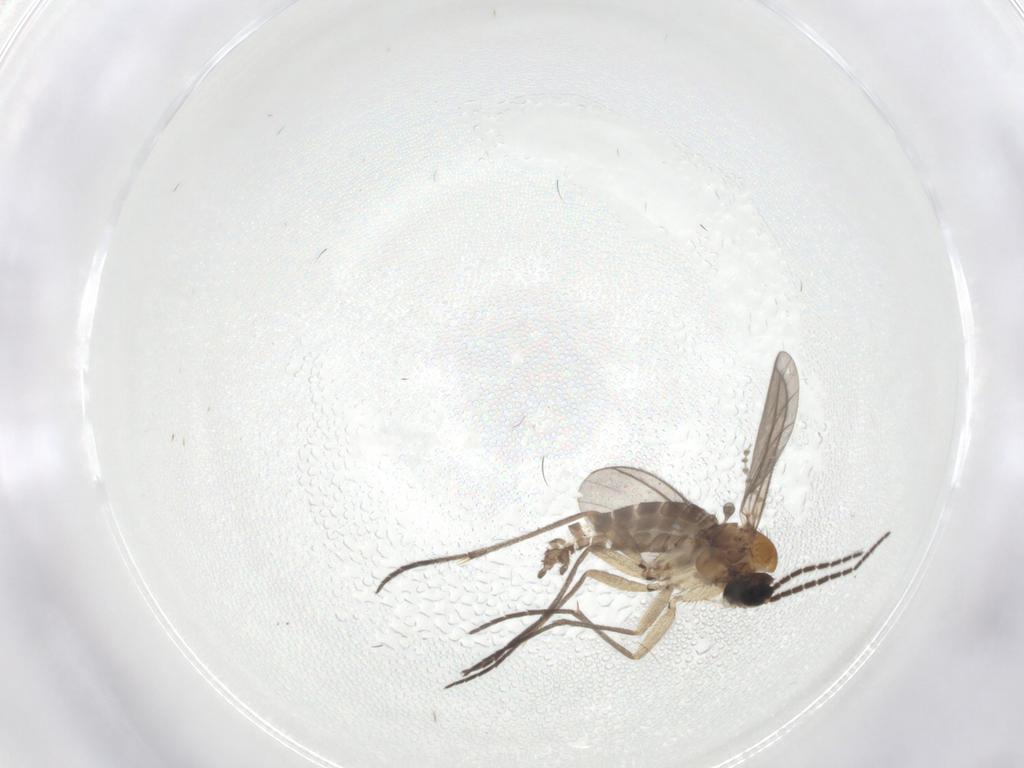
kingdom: Animalia
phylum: Arthropoda
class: Insecta
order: Diptera
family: Sciaridae
